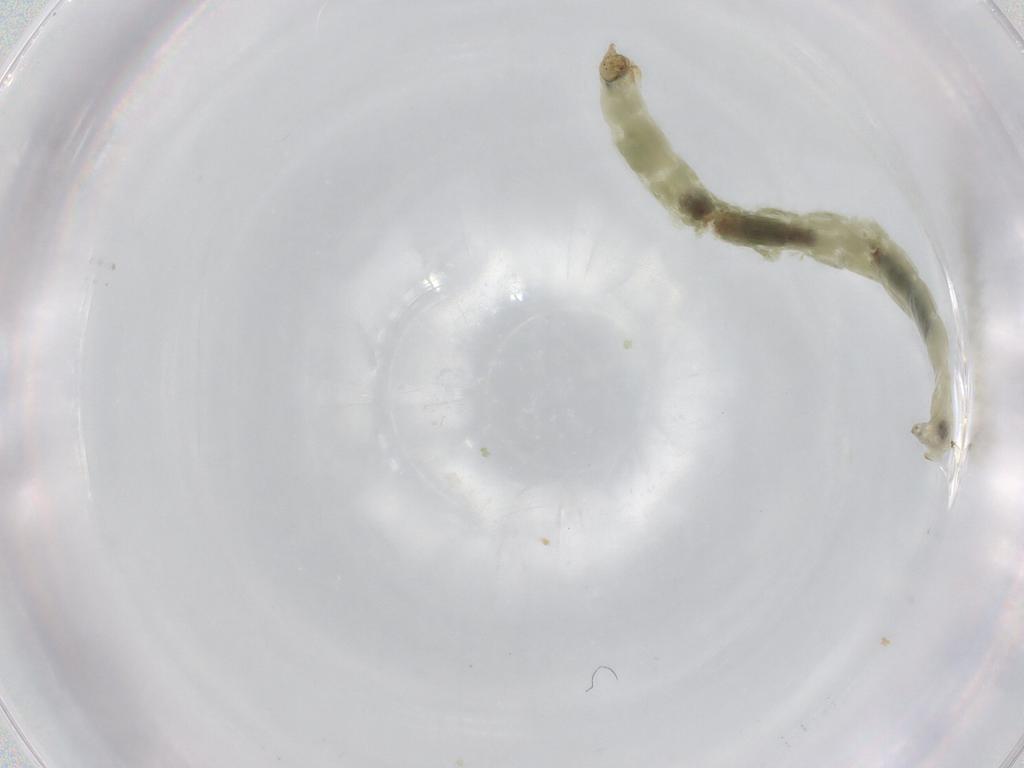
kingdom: Animalia
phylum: Arthropoda
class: Insecta
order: Diptera
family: Chironomidae
